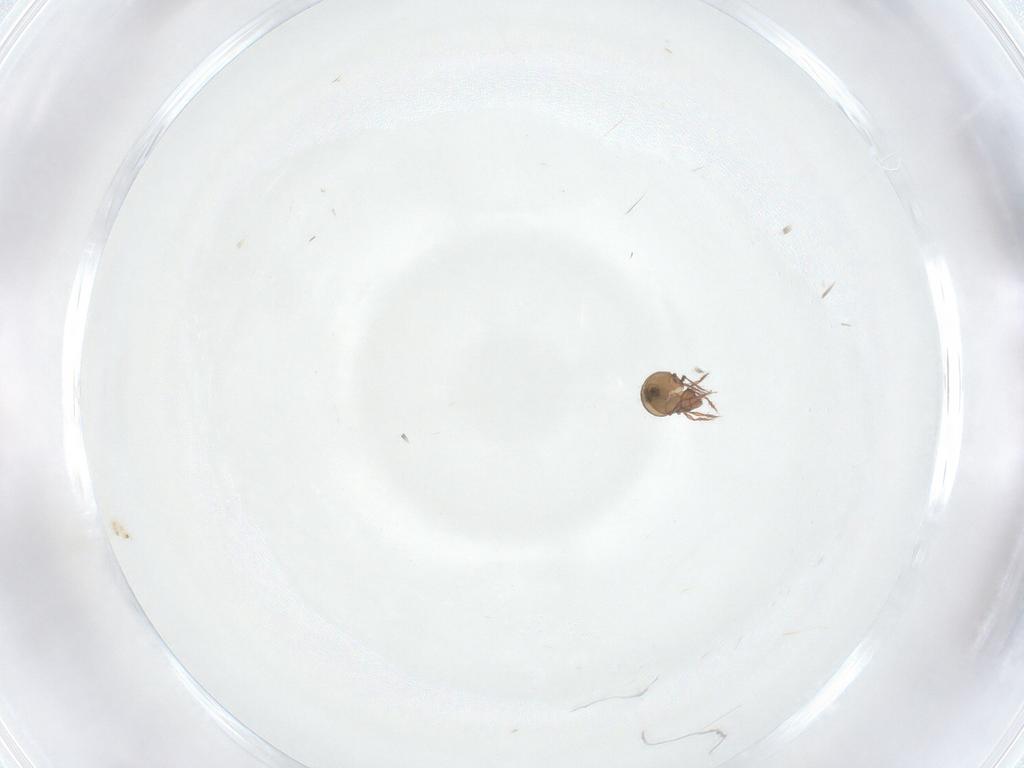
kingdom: Animalia
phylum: Arthropoda
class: Arachnida
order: Sarcoptiformes
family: Oppiidae
